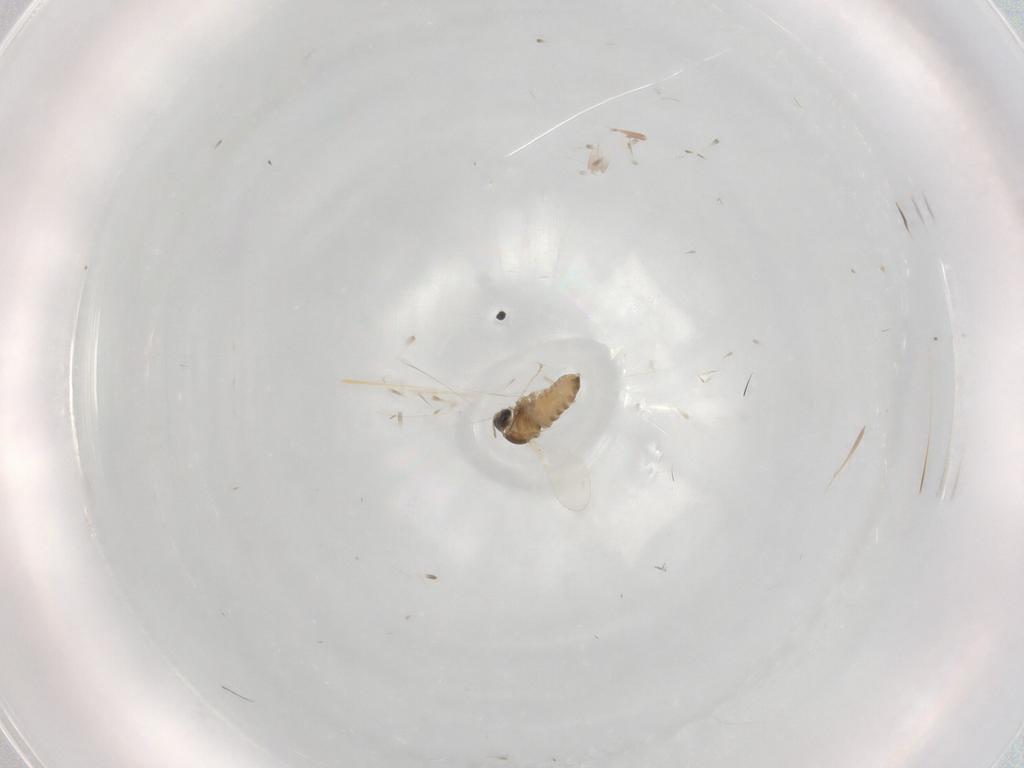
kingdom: Animalia
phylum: Arthropoda
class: Insecta
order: Diptera
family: Cecidomyiidae
